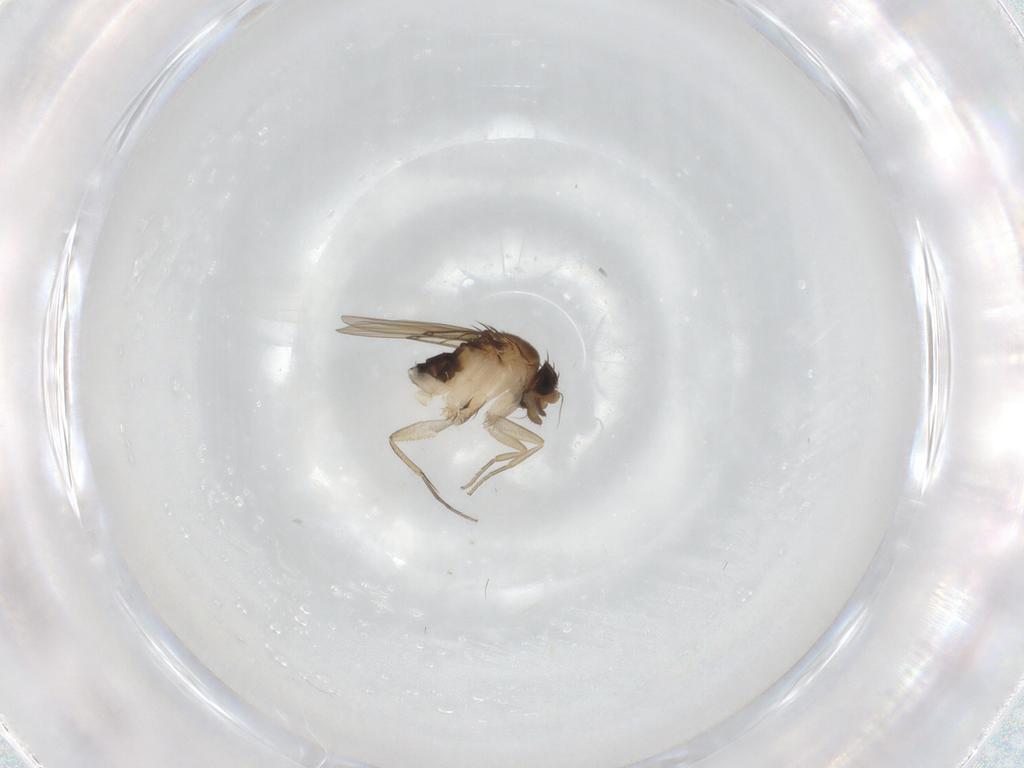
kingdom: Animalia
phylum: Arthropoda
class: Insecta
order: Diptera
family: Phoridae
